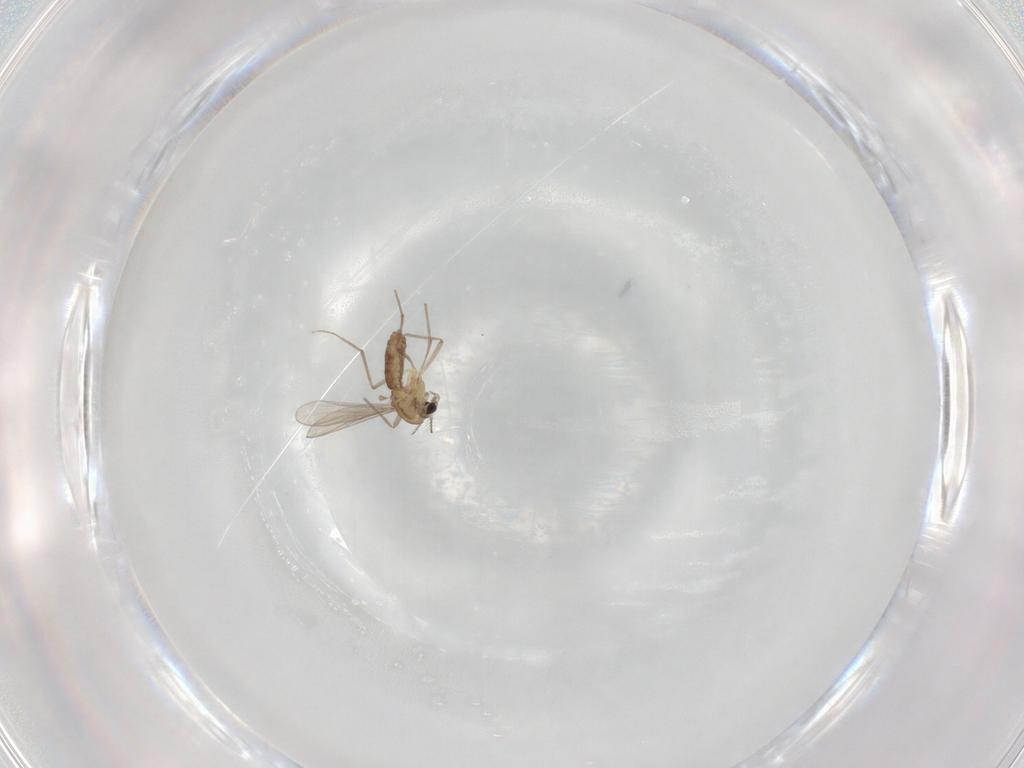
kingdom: Animalia
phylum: Arthropoda
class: Insecta
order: Diptera
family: Chironomidae
